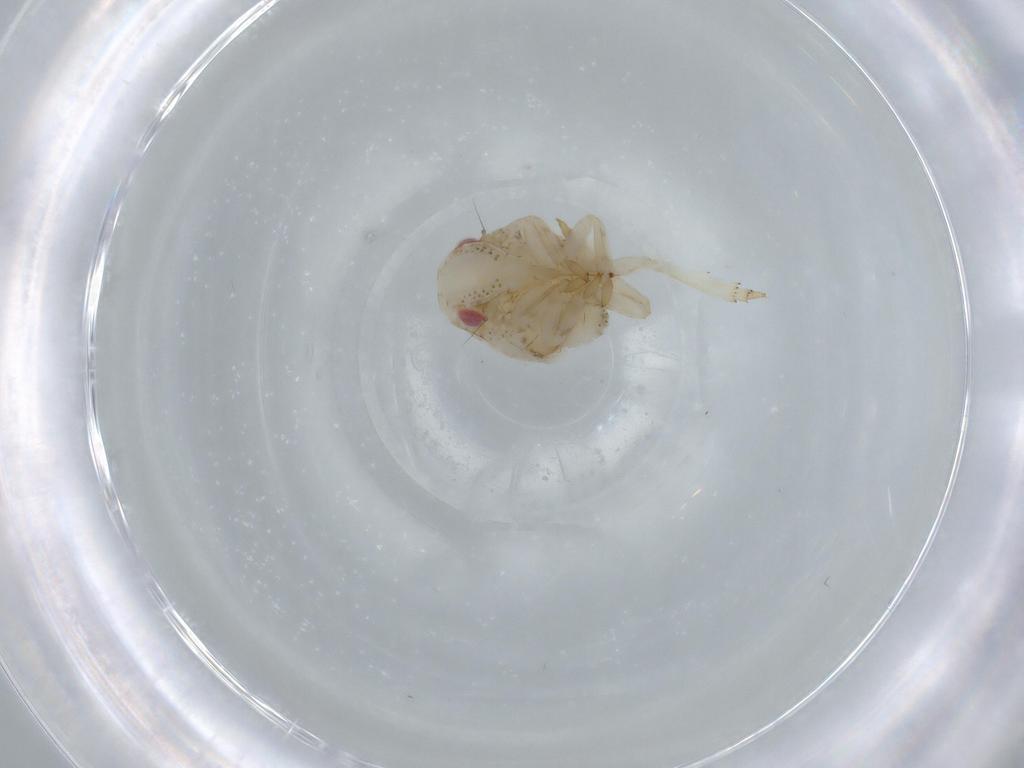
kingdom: Animalia
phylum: Arthropoda
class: Insecta
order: Hemiptera
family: Acanaloniidae
